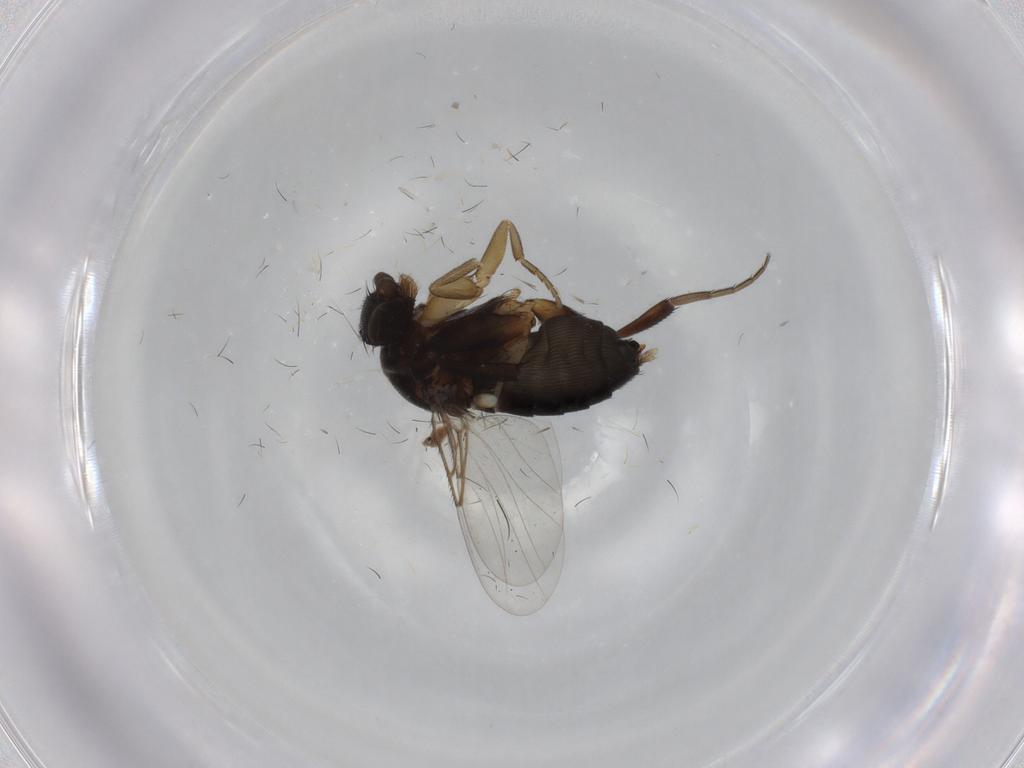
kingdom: Animalia
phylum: Arthropoda
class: Insecta
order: Diptera
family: Phoridae
